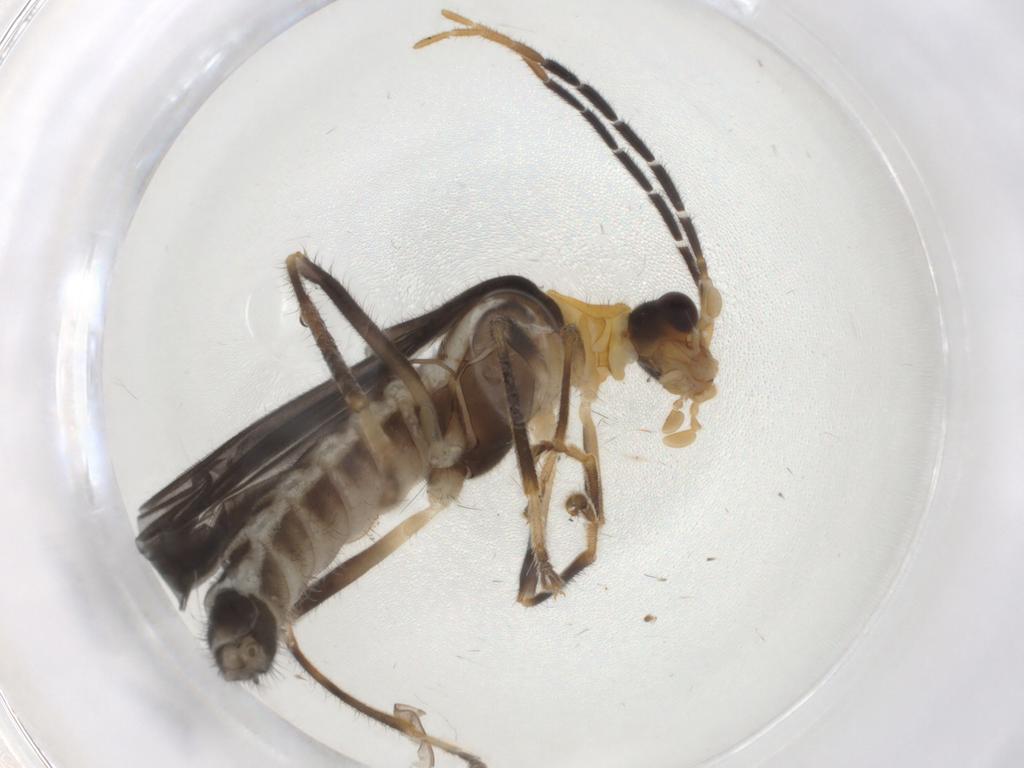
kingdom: Animalia
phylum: Arthropoda
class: Insecta
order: Coleoptera
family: Cantharidae
